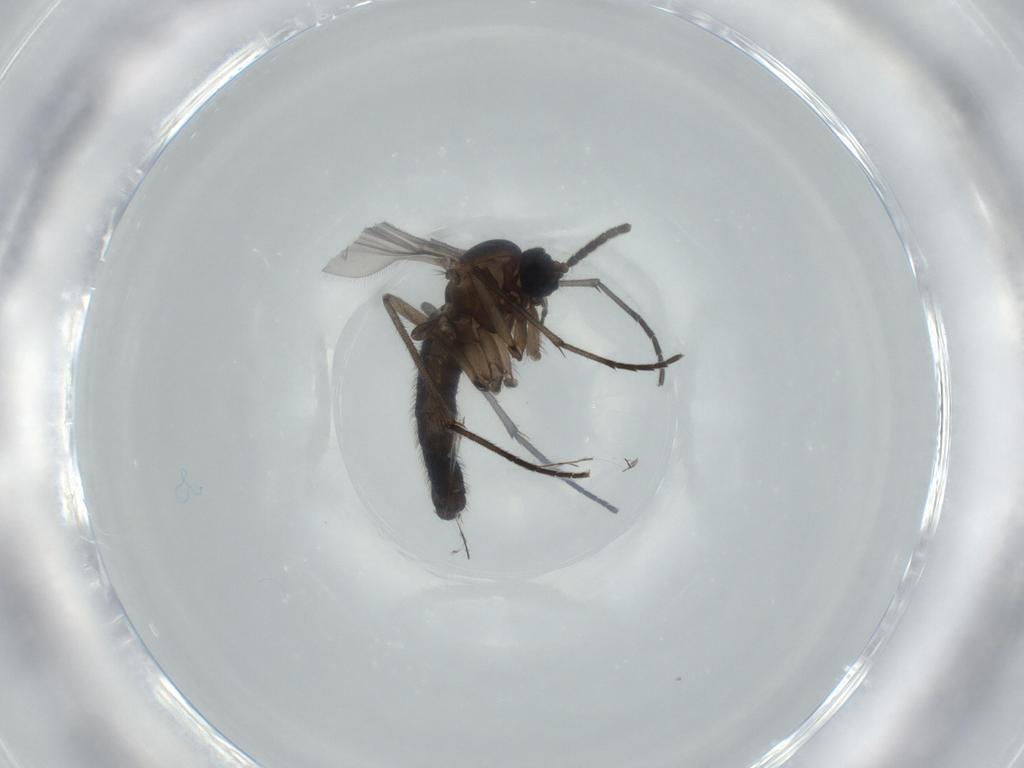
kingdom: Animalia
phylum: Arthropoda
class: Insecta
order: Diptera
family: Sciaridae
